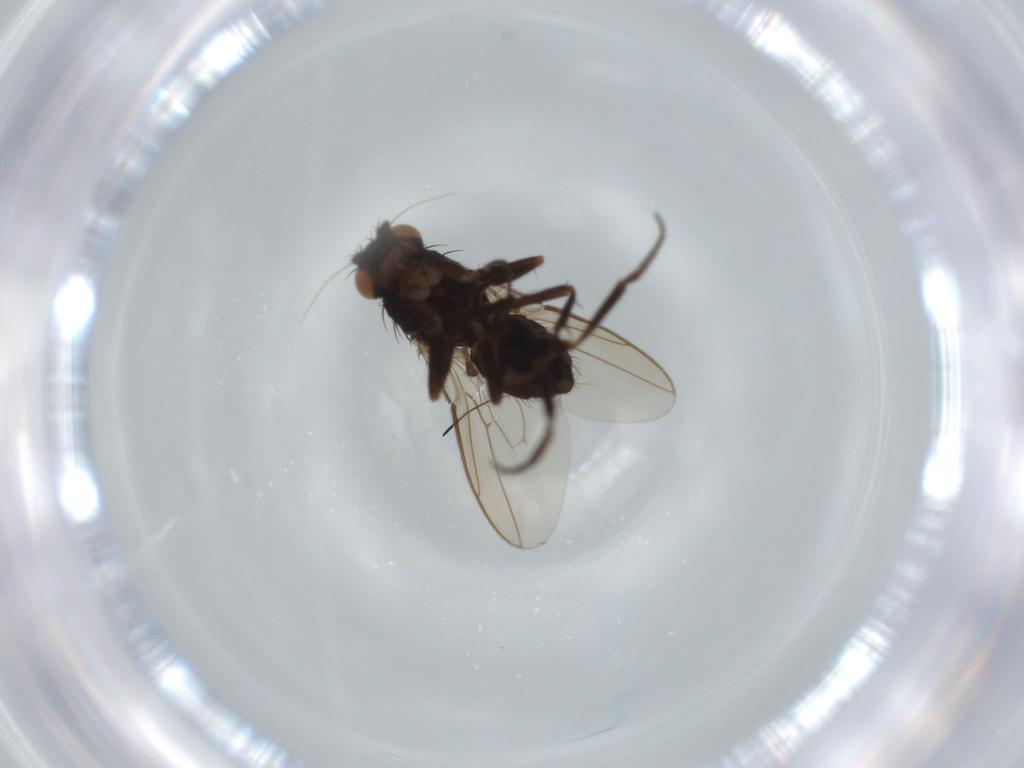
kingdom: Animalia
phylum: Arthropoda
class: Insecta
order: Diptera
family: Sphaeroceridae
